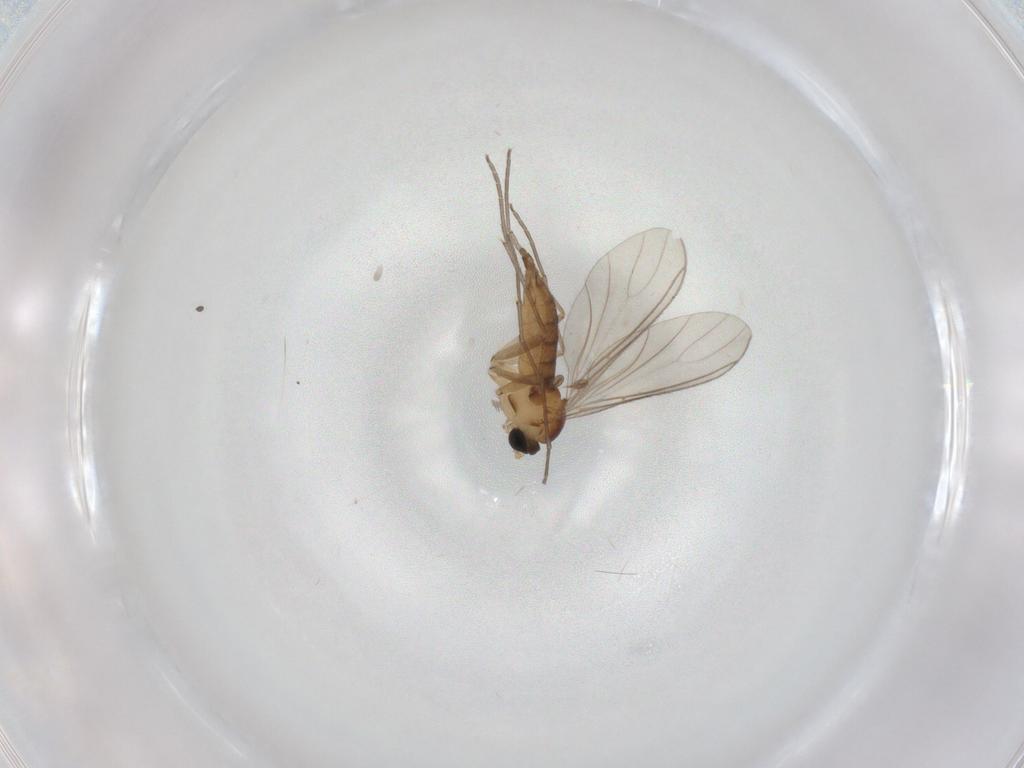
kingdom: Animalia
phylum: Arthropoda
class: Insecta
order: Diptera
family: Sciaridae
